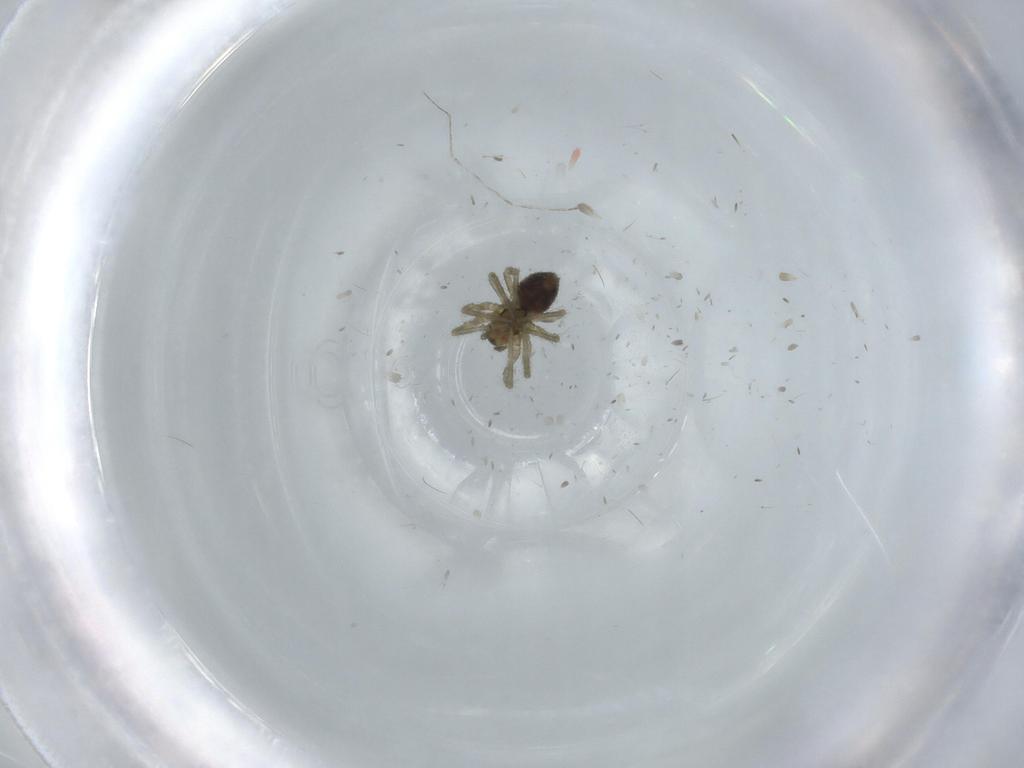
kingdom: Animalia
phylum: Arthropoda
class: Arachnida
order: Araneae
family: Linyphiidae
